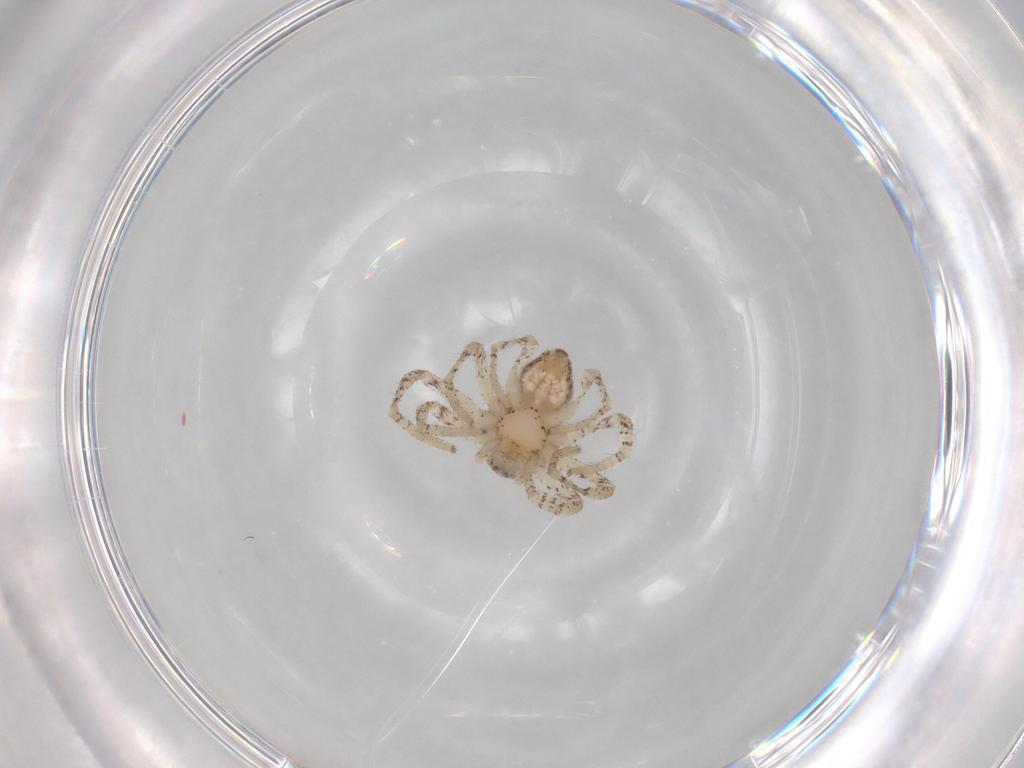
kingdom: Animalia
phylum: Arthropoda
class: Arachnida
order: Araneae
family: Philodromidae
